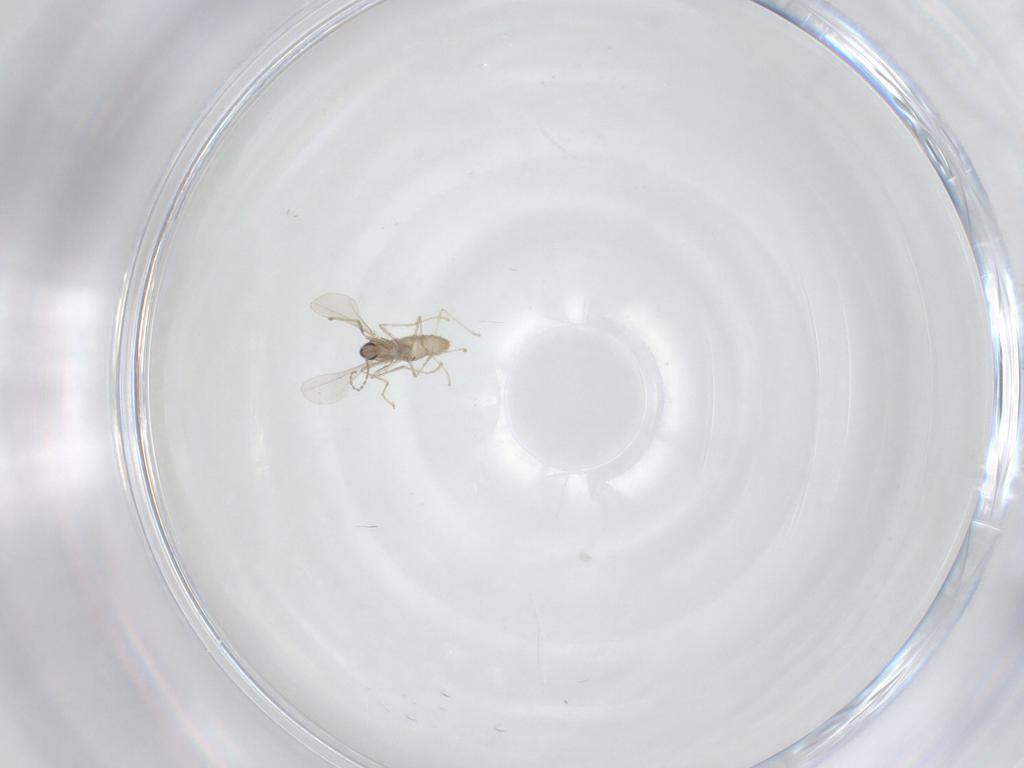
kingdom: Animalia
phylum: Arthropoda
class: Insecta
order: Diptera
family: Cecidomyiidae
